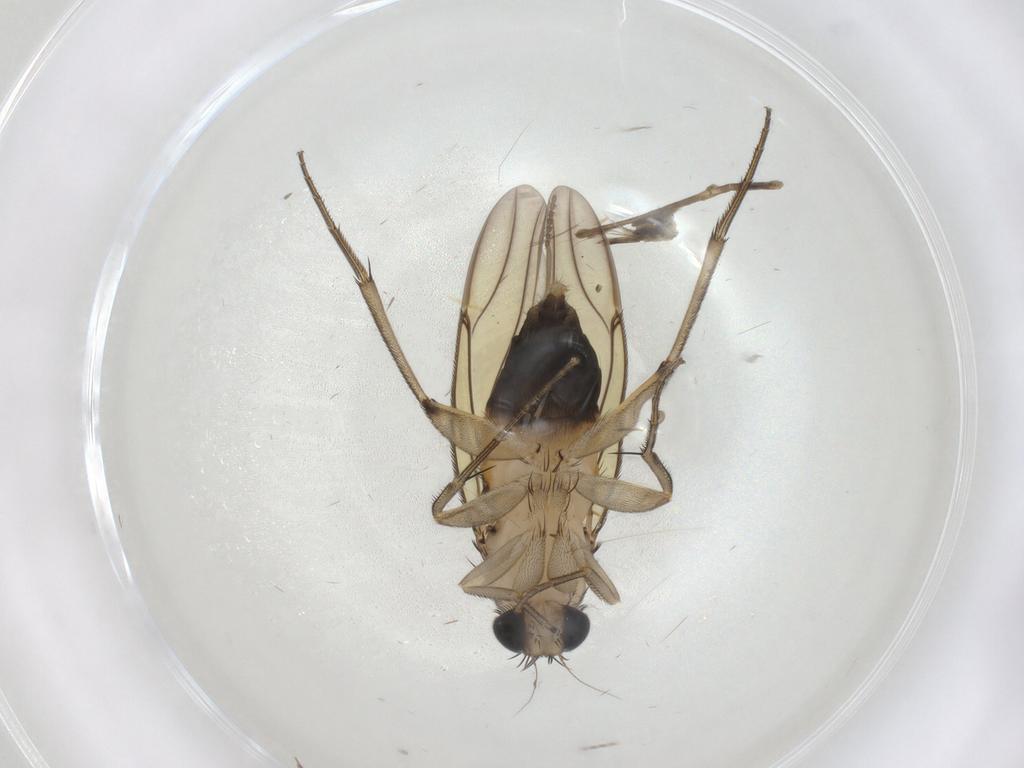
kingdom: Animalia
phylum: Arthropoda
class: Insecta
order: Diptera
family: Phoridae
